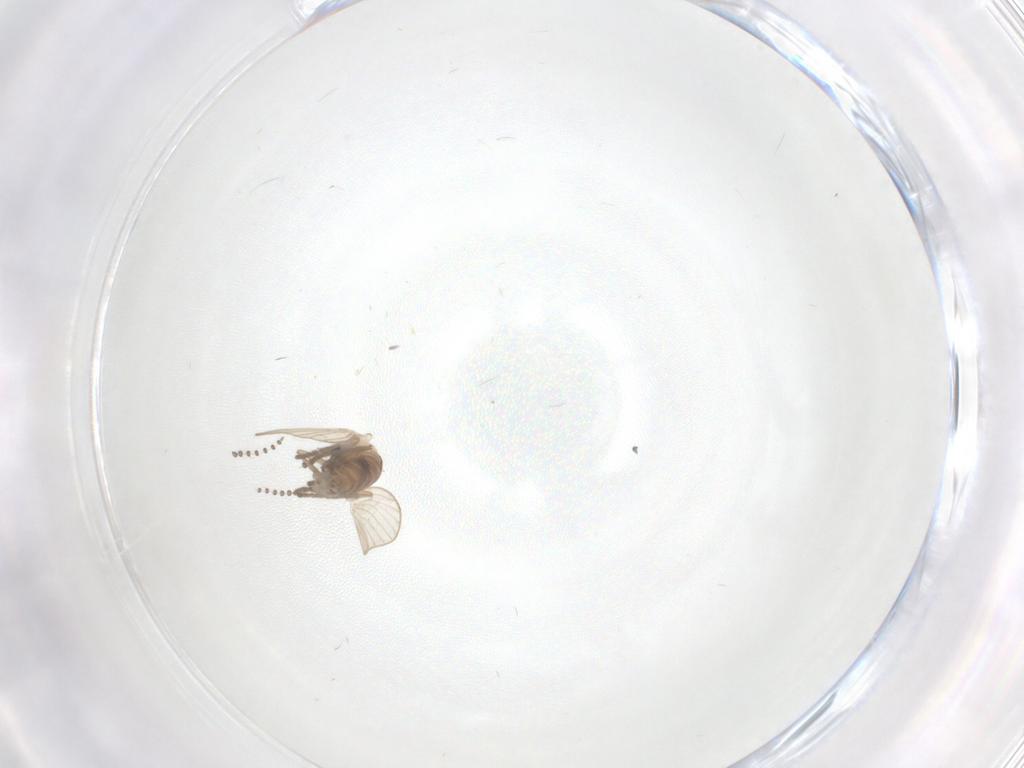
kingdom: Animalia
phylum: Arthropoda
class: Insecta
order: Diptera
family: Psychodidae
